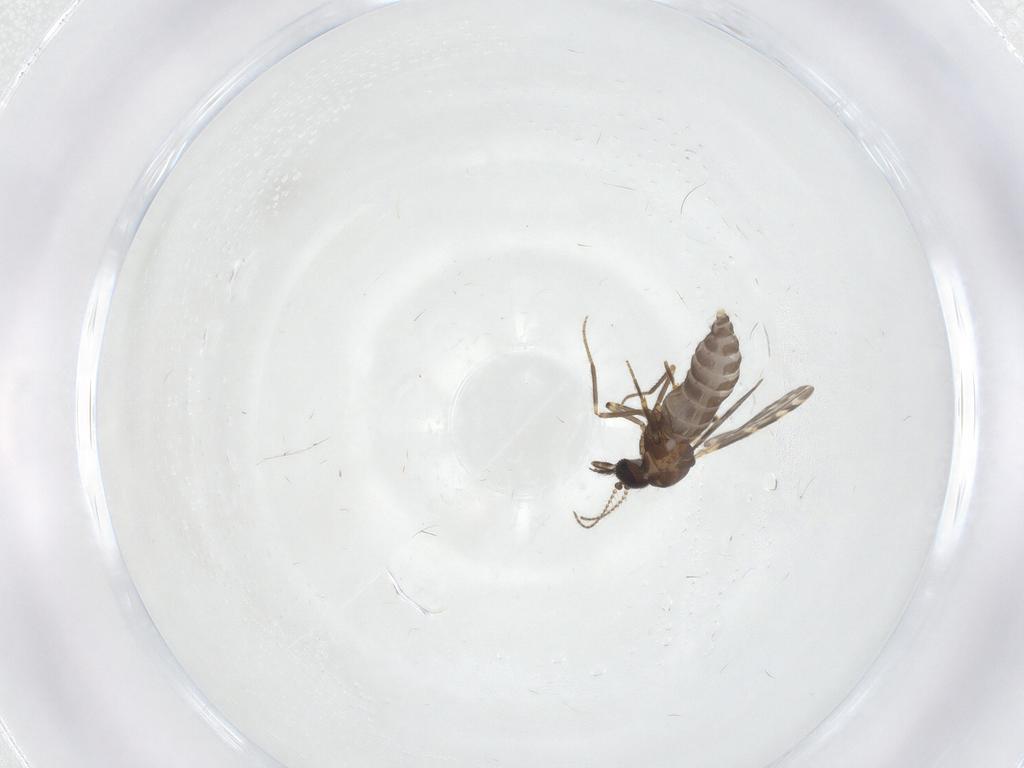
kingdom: Animalia
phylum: Arthropoda
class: Insecta
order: Diptera
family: Ceratopogonidae
